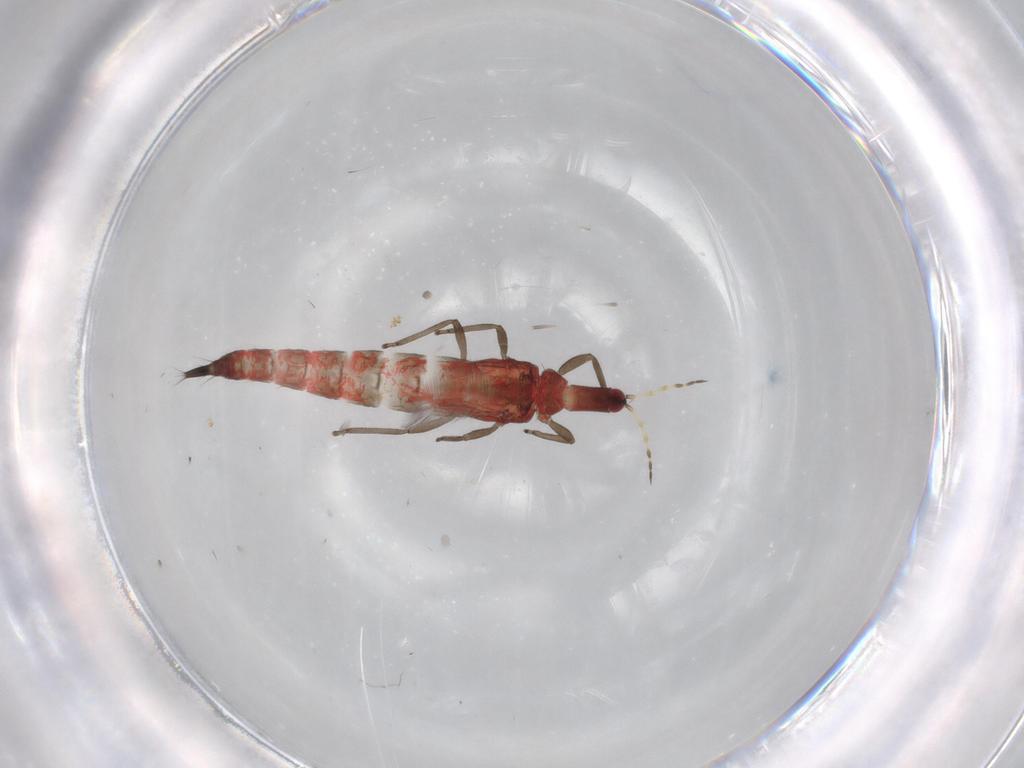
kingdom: Animalia
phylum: Arthropoda
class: Insecta
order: Thysanoptera
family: Phlaeothripidae
